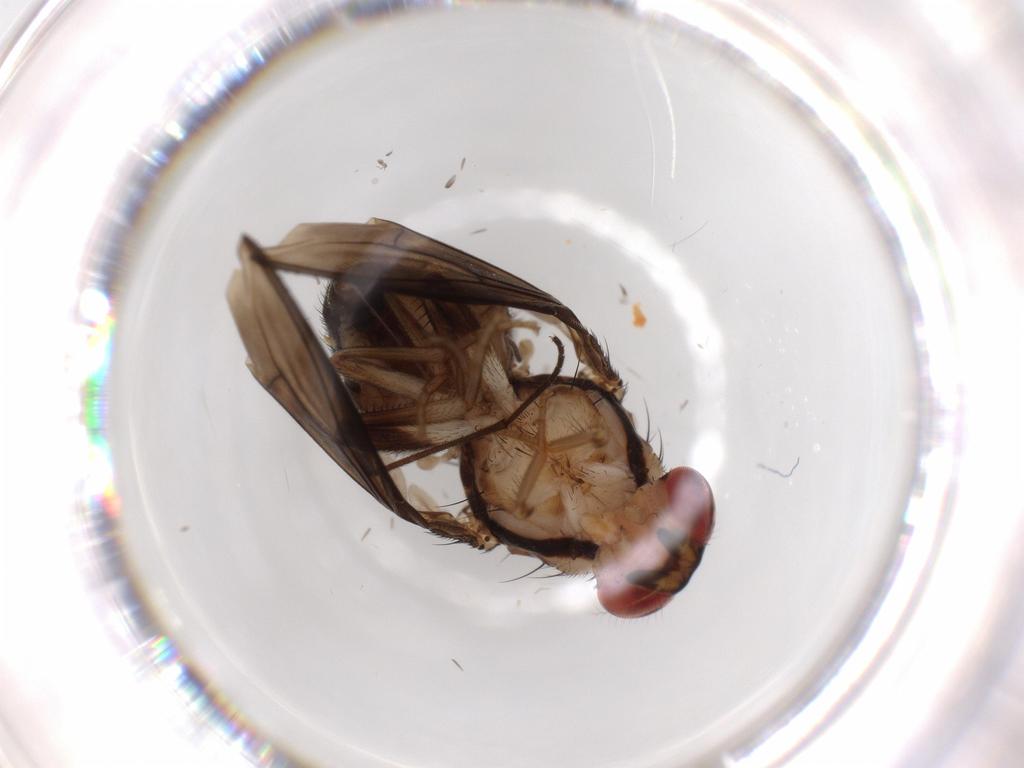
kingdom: Animalia
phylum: Arthropoda
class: Insecta
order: Diptera
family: Drosophilidae
